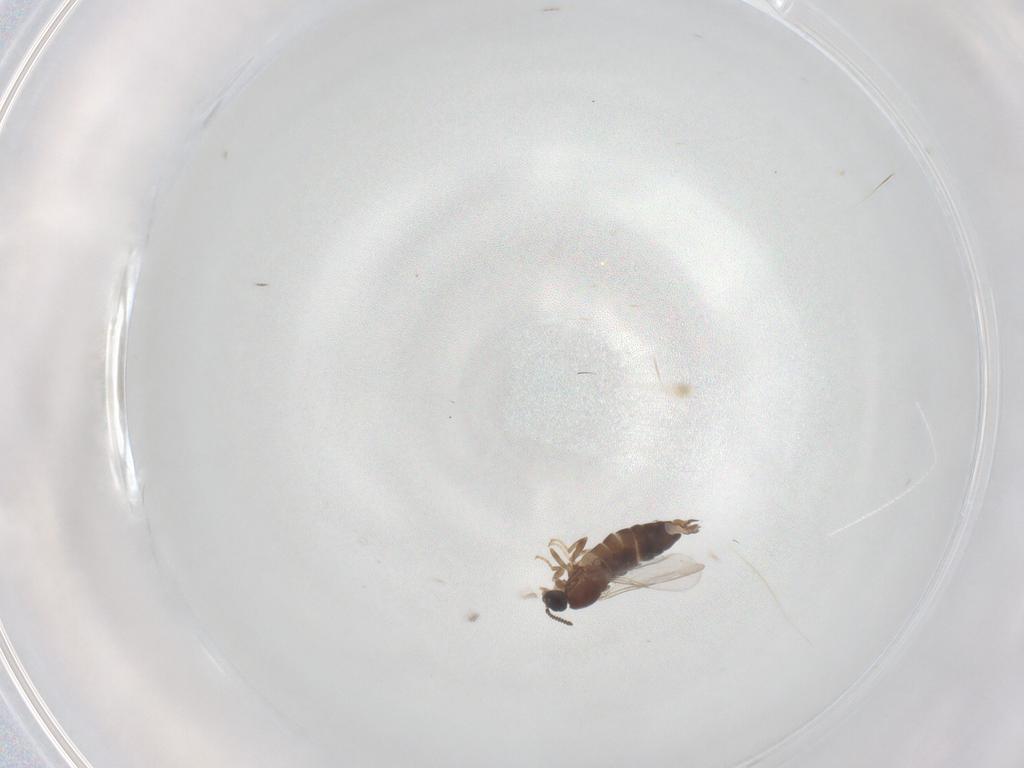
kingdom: Animalia
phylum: Arthropoda
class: Insecta
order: Diptera
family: Scatopsidae
